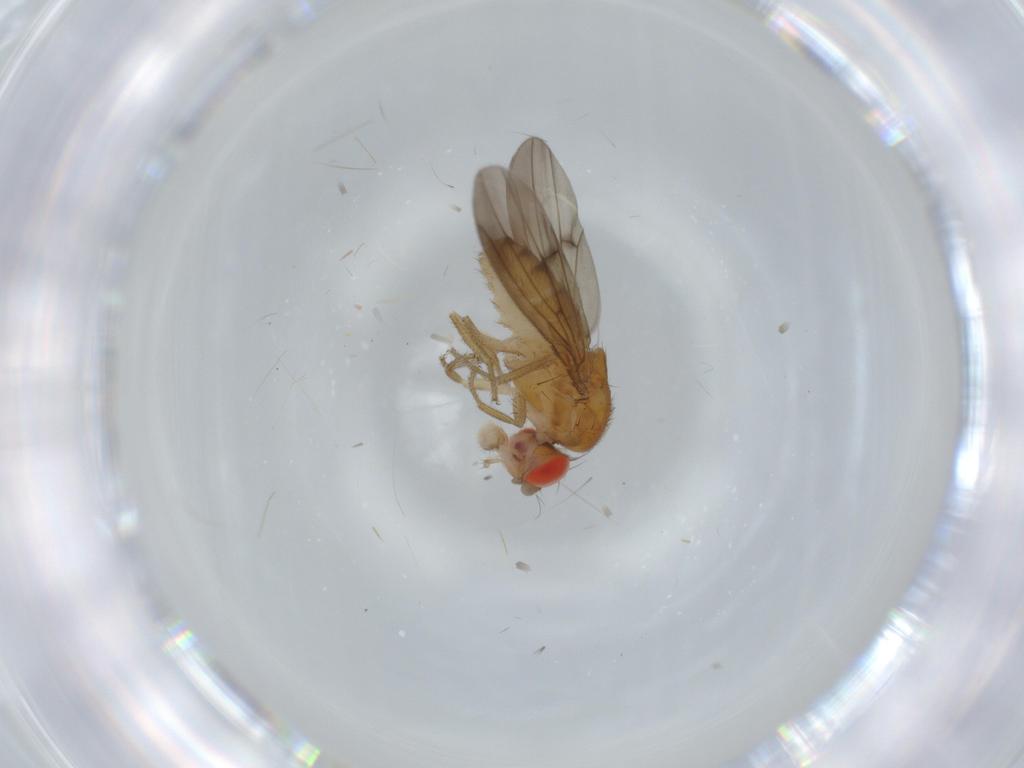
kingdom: Animalia
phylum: Arthropoda
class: Insecta
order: Diptera
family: Drosophilidae
